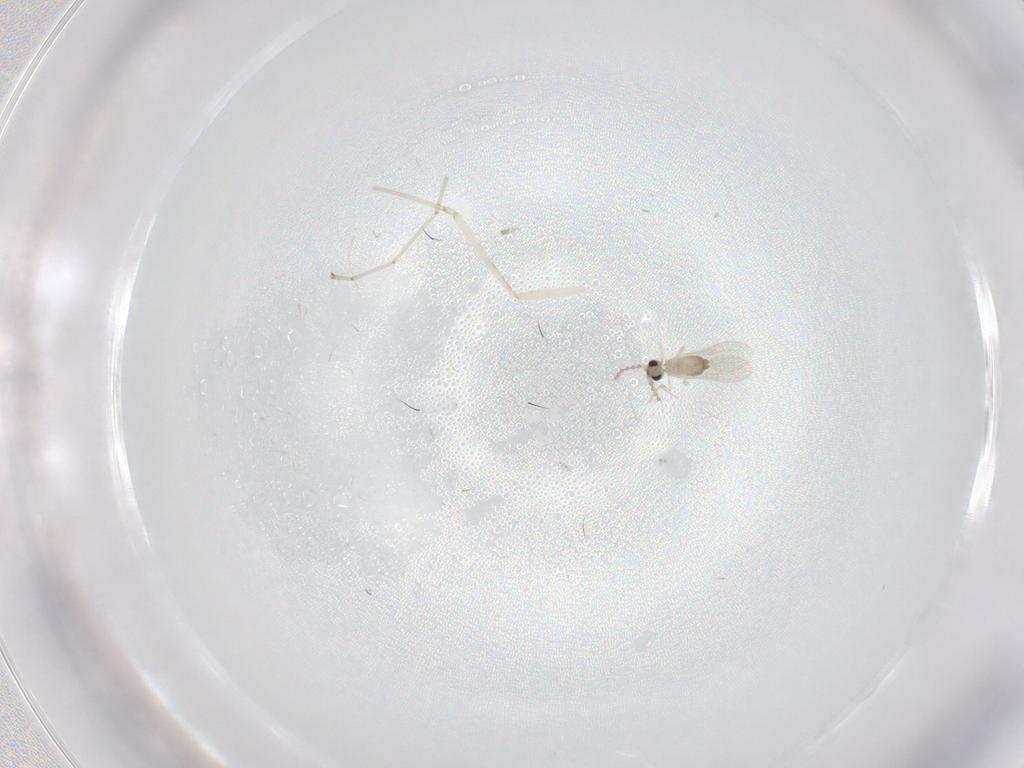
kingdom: Animalia
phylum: Arthropoda
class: Insecta
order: Diptera
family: Cecidomyiidae
